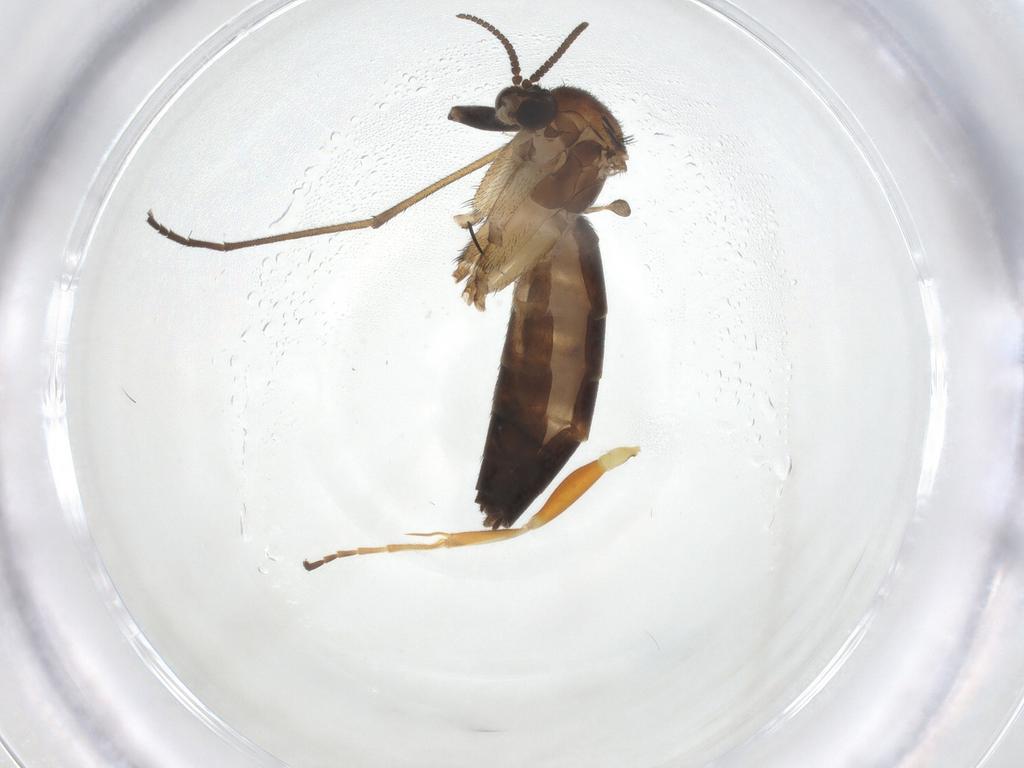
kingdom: Animalia
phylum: Arthropoda
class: Insecta
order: Diptera
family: Keroplatidae
